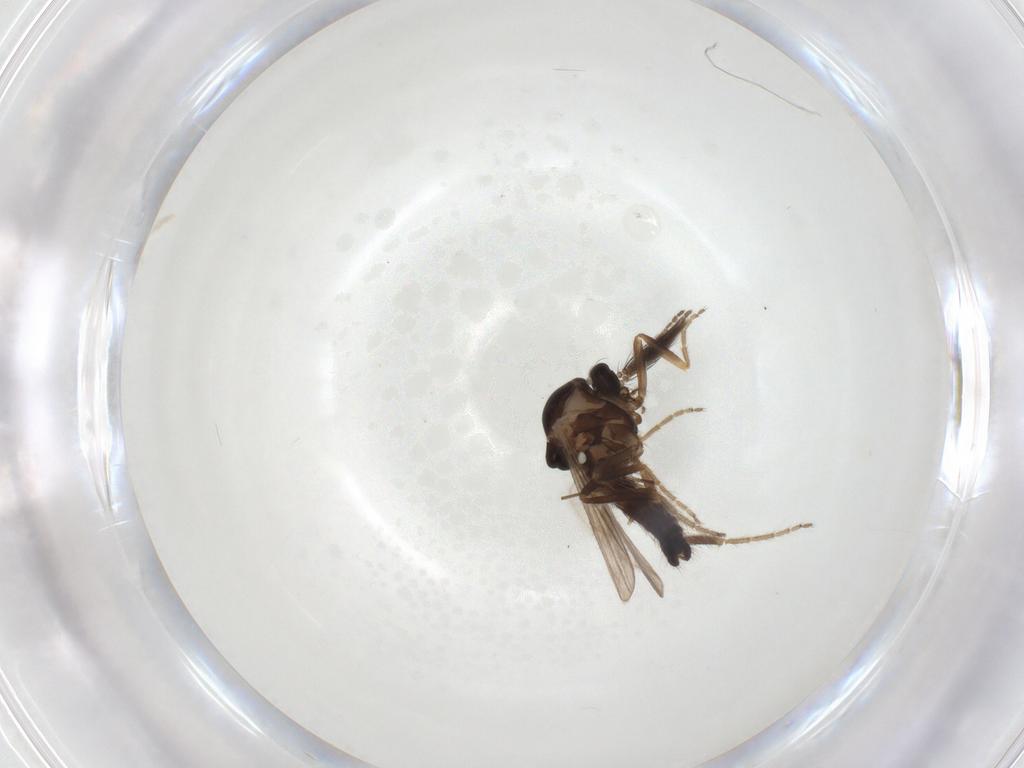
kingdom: Animalia
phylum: Arthropoda
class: Insecta
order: Diptera
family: Ceratopogonidae
